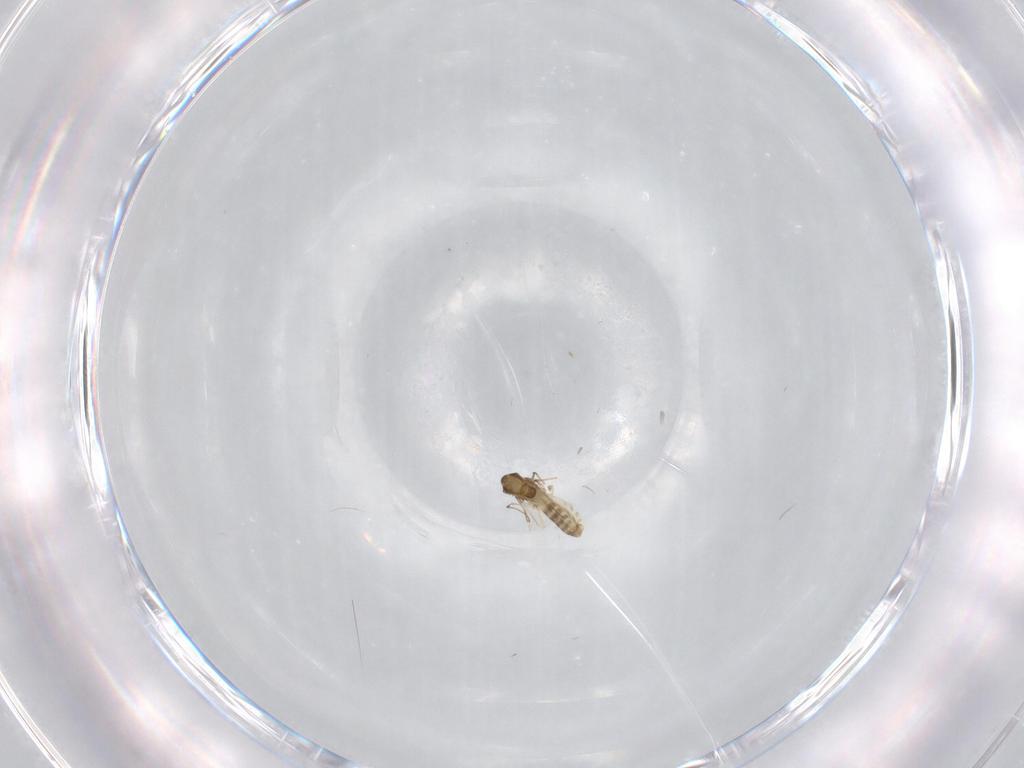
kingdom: Animalia
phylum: Arthropoda
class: Insecta
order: Diptera
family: Chironomidae
